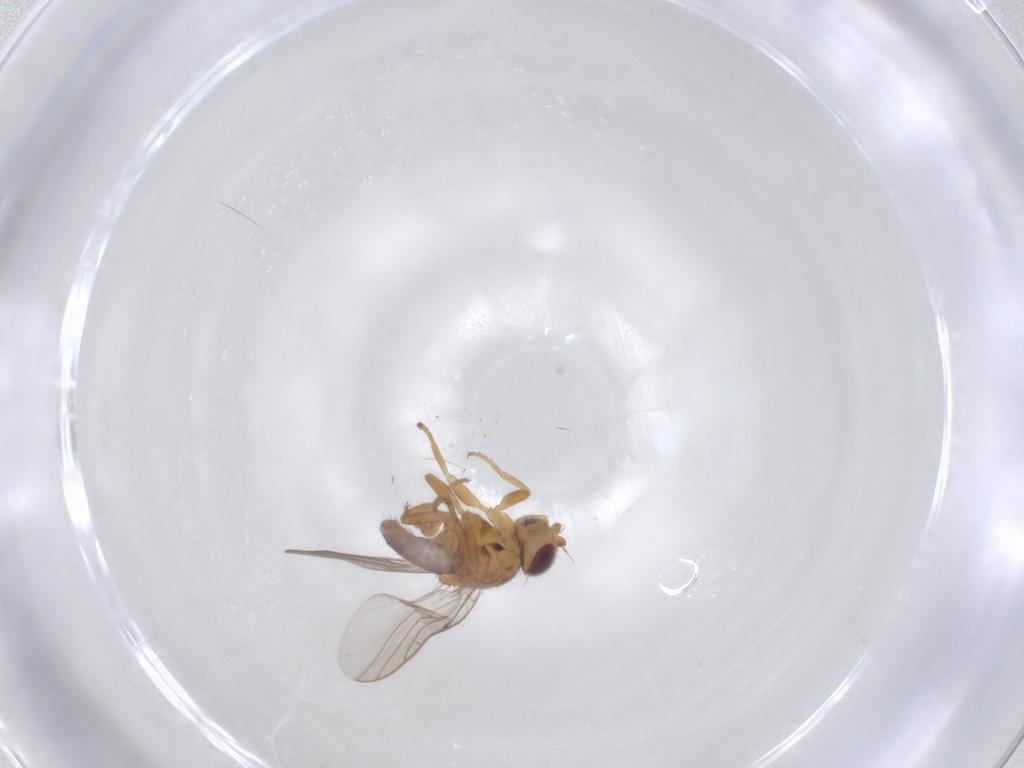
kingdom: Animalia
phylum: Arthropoda
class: Insecta
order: Diptera
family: Chloropidae
